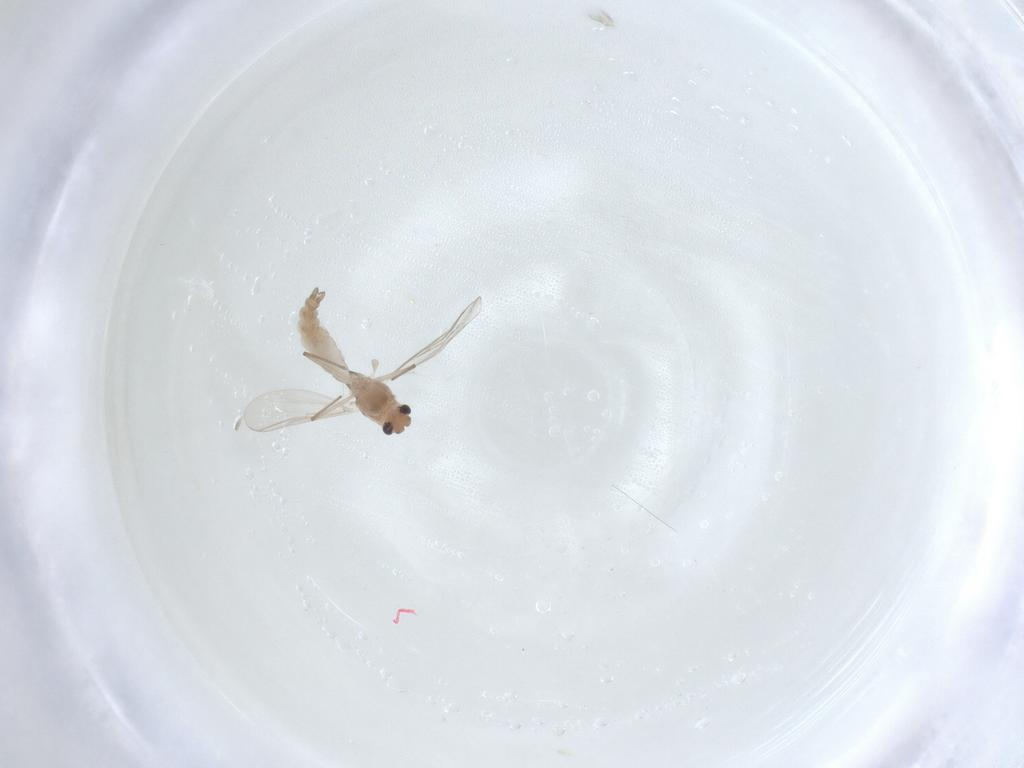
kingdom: Animalia
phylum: Arthropoda
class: Insecta
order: Diptera
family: Chironomidae
